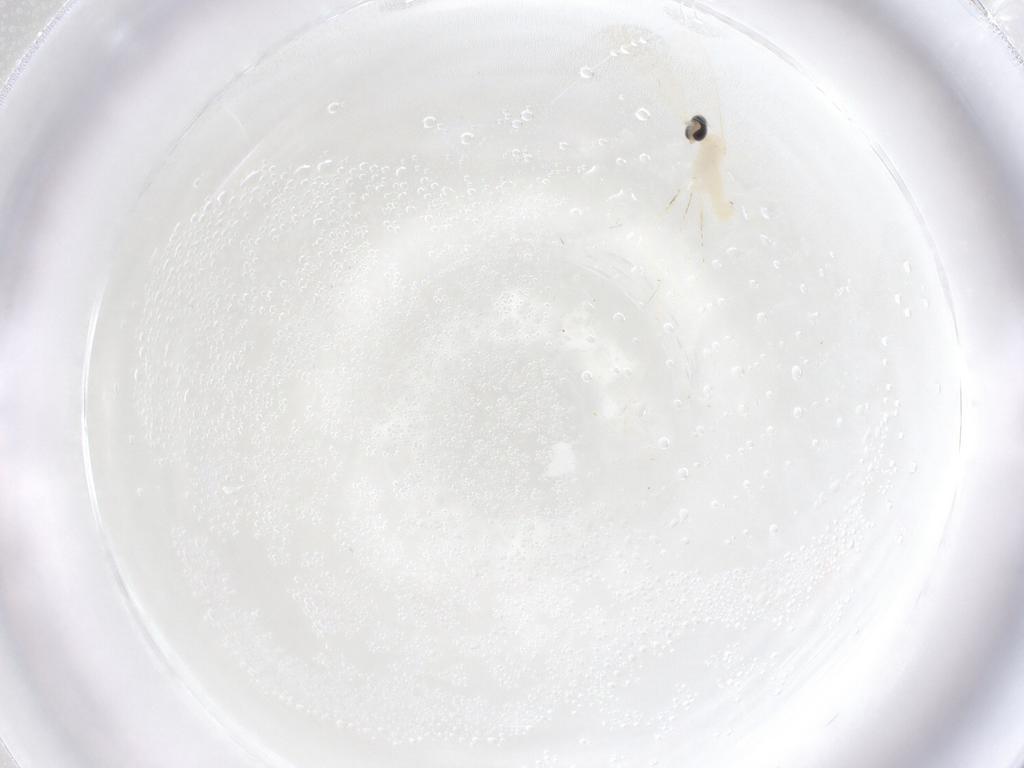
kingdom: Animalia
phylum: Arthropoda
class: Insecta
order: Diptera
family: Cecidomyiidae
